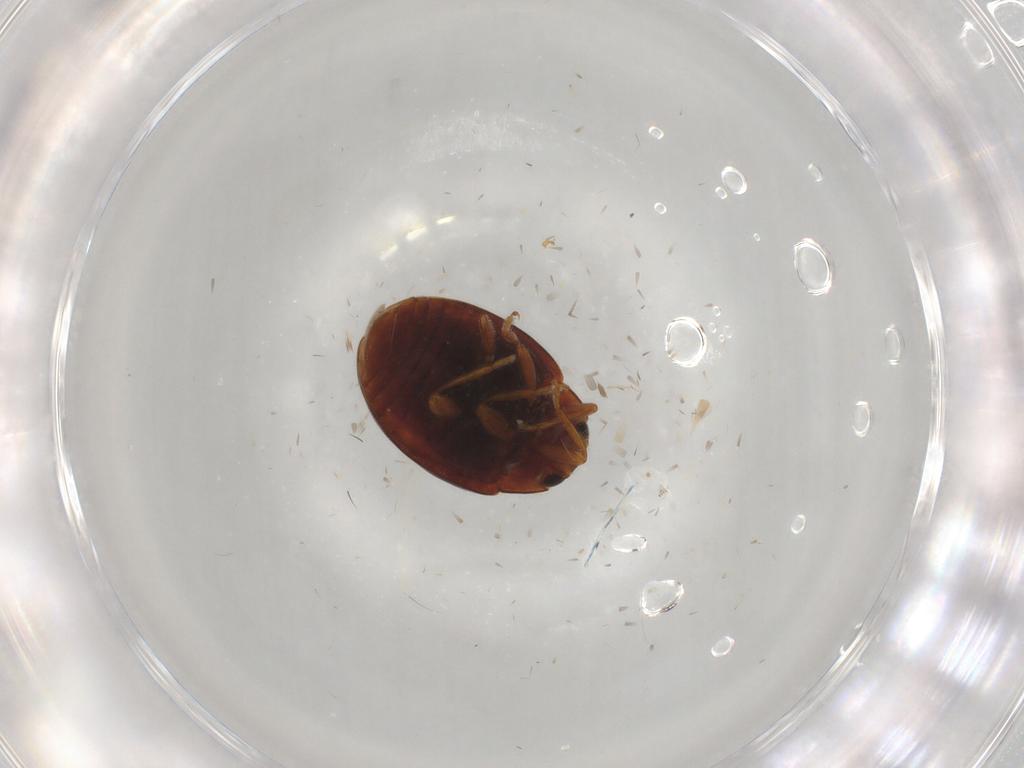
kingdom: Animalia
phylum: Arthropoda
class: Insecta
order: Coleoptera
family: Coccinellidae
